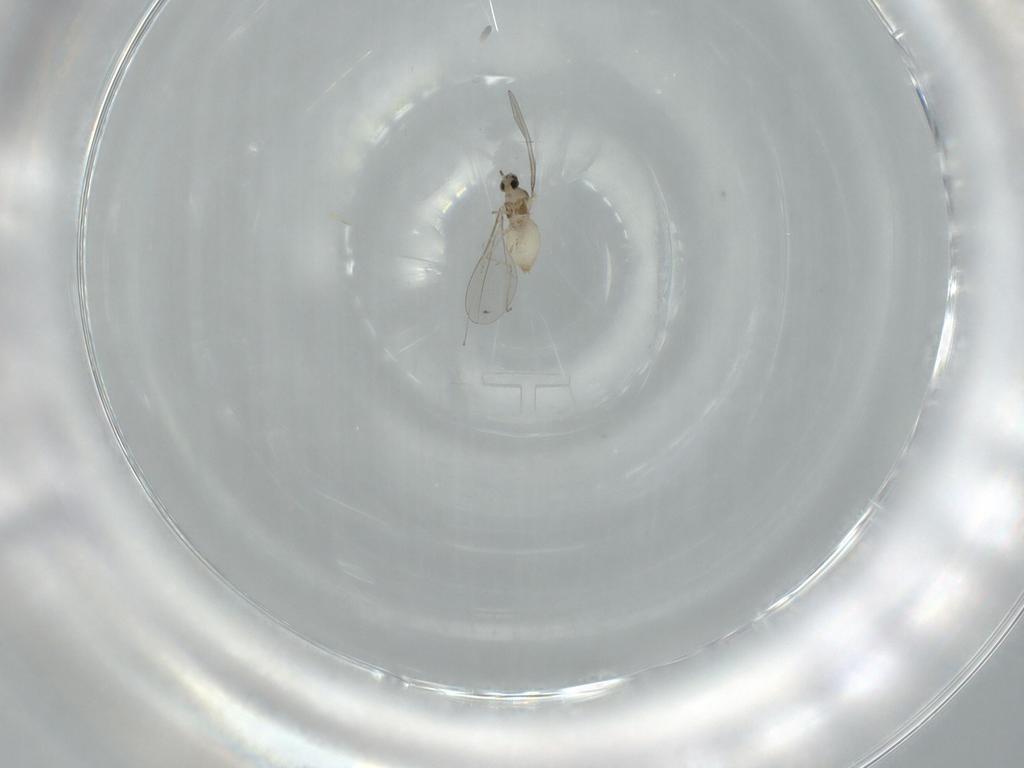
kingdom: Animalia
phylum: Arthropoda
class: Insecta
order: Diptera
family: Cecidomyiidae
